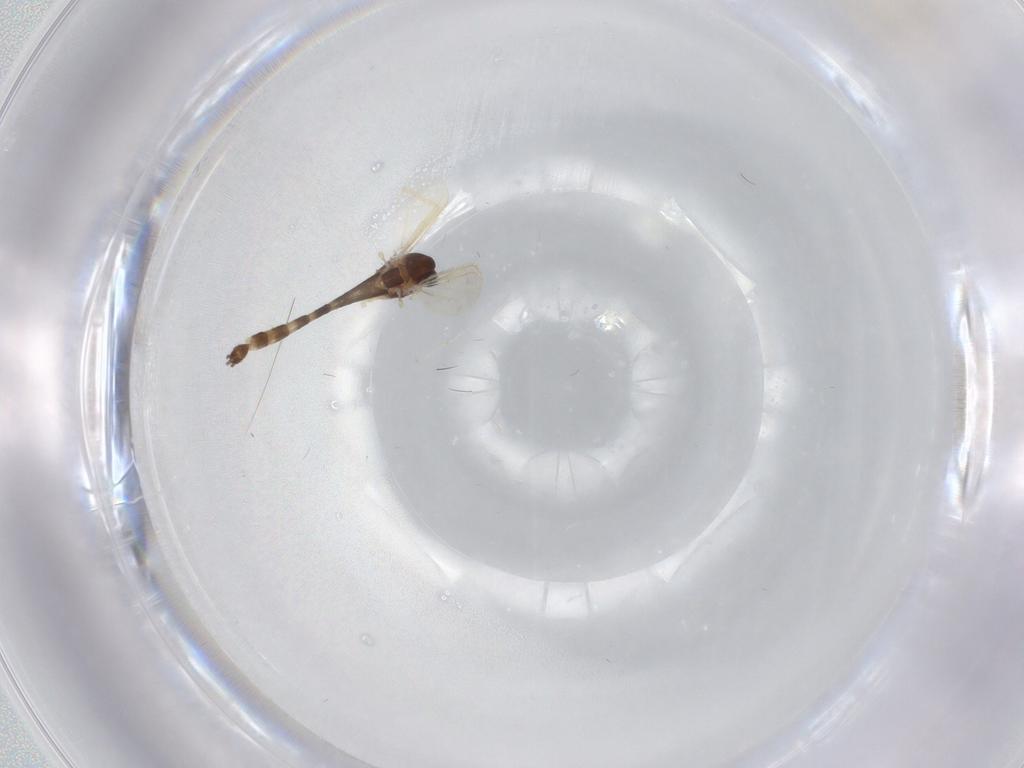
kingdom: Animalia
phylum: Arthropoda
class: Insecta
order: Diptera
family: Chironomidae
